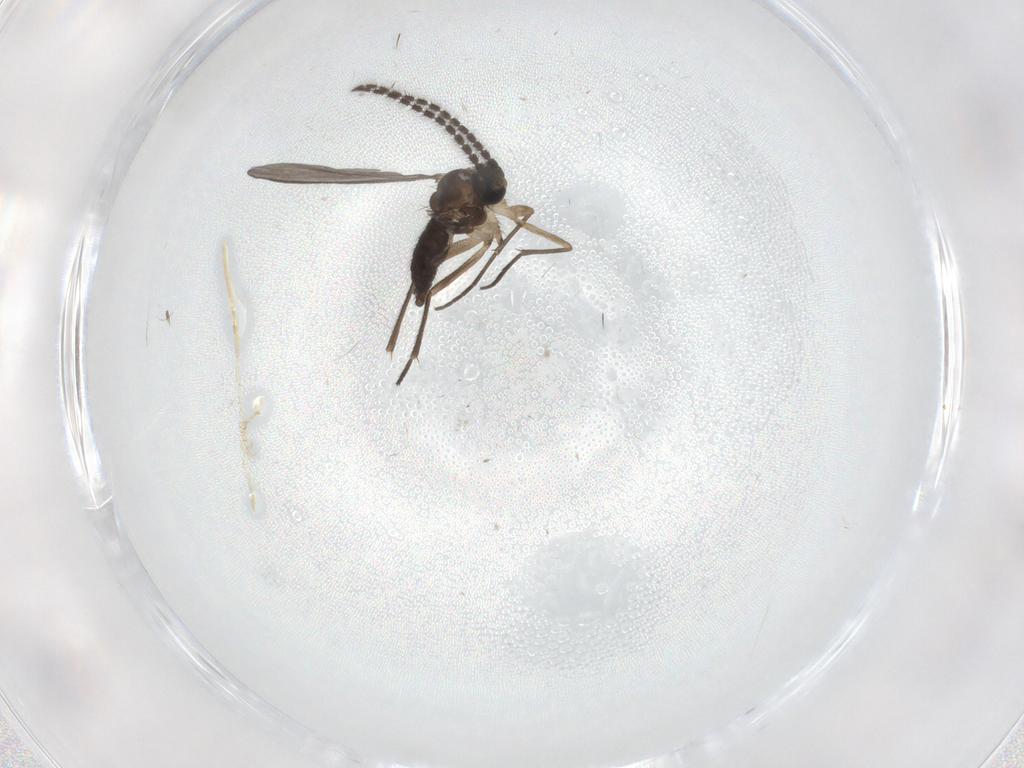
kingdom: Animalia
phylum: Arthropoda
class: Insecta
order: Diptera
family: Sciaridae
